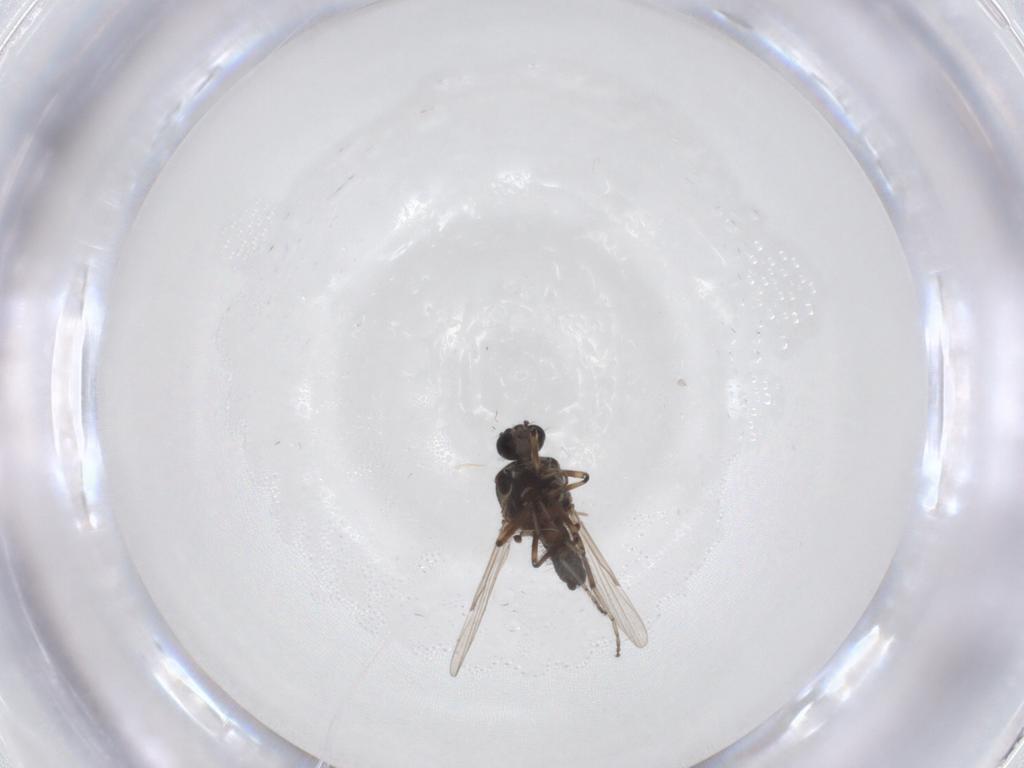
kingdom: Animalia
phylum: Arthropoda
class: Insecta
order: Diptera
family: Ceratopogonidae
